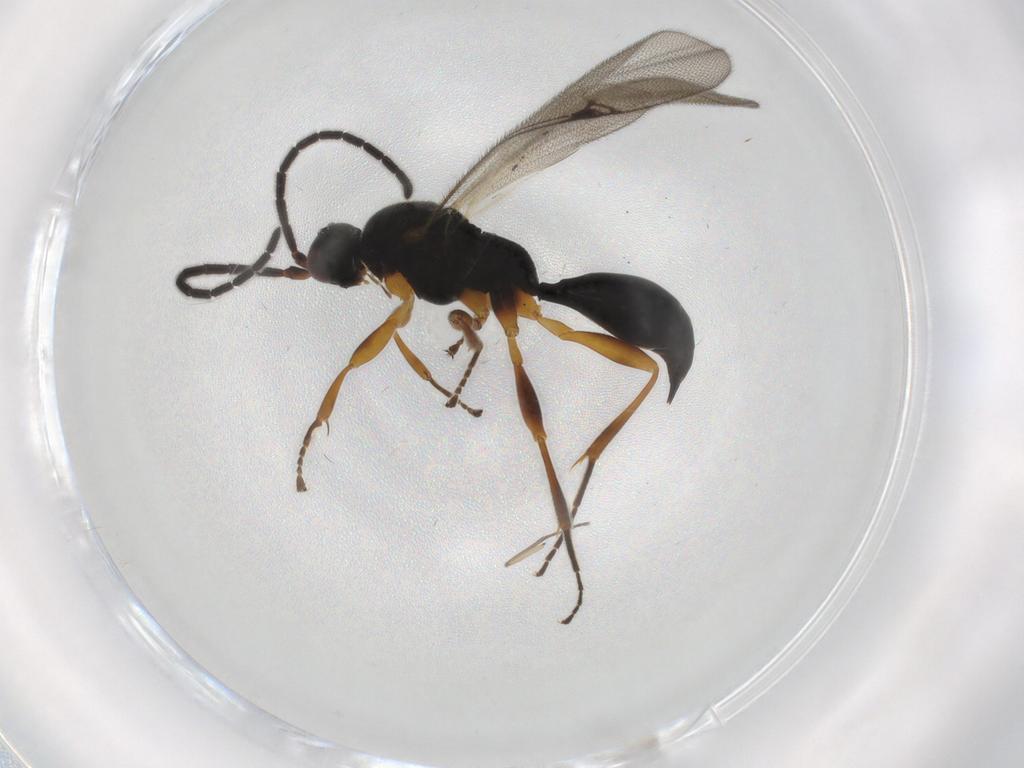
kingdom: Animalia
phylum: Arthropoda
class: Insecta
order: Hymenoptera
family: Proctotrupidae
